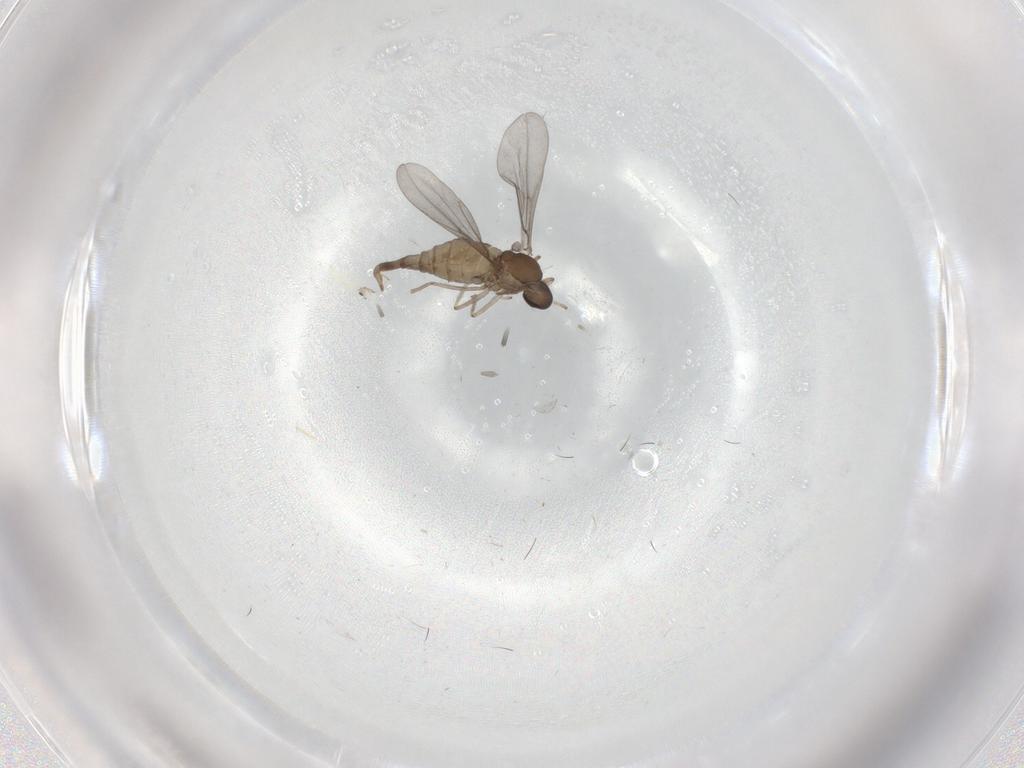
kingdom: Animalia
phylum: Arthropoda
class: Insecta
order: Diptera
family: Cecidomyiidae
